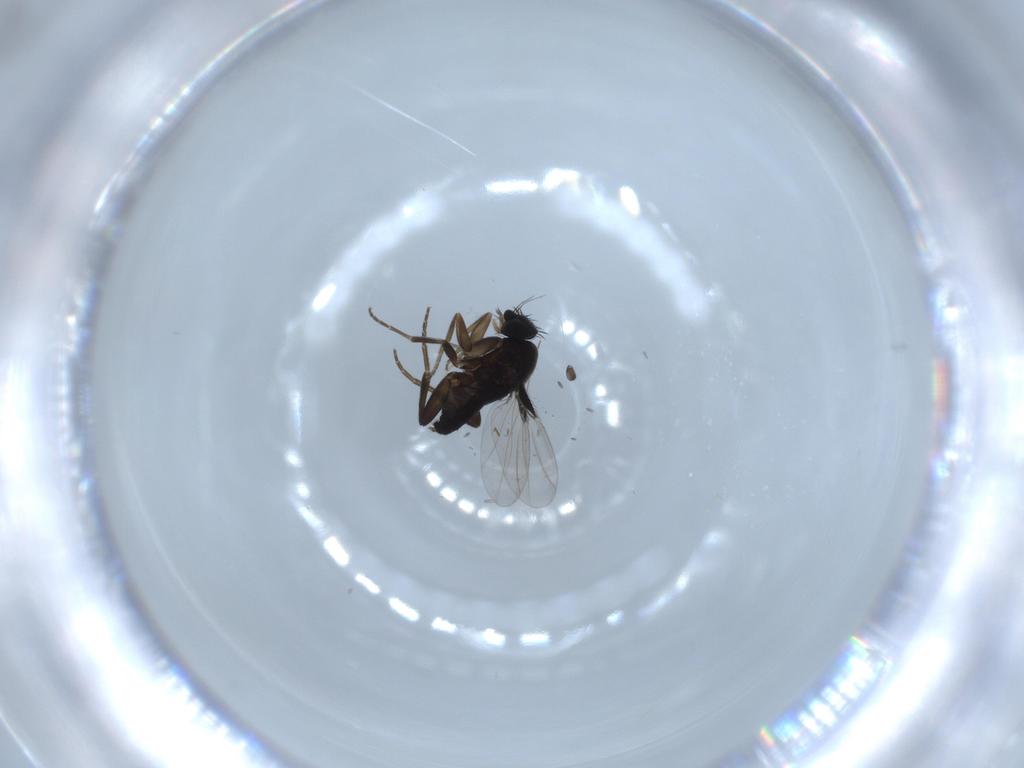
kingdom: Animalia
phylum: Arthropoda
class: Insecta
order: Diptera
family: Phoridae
